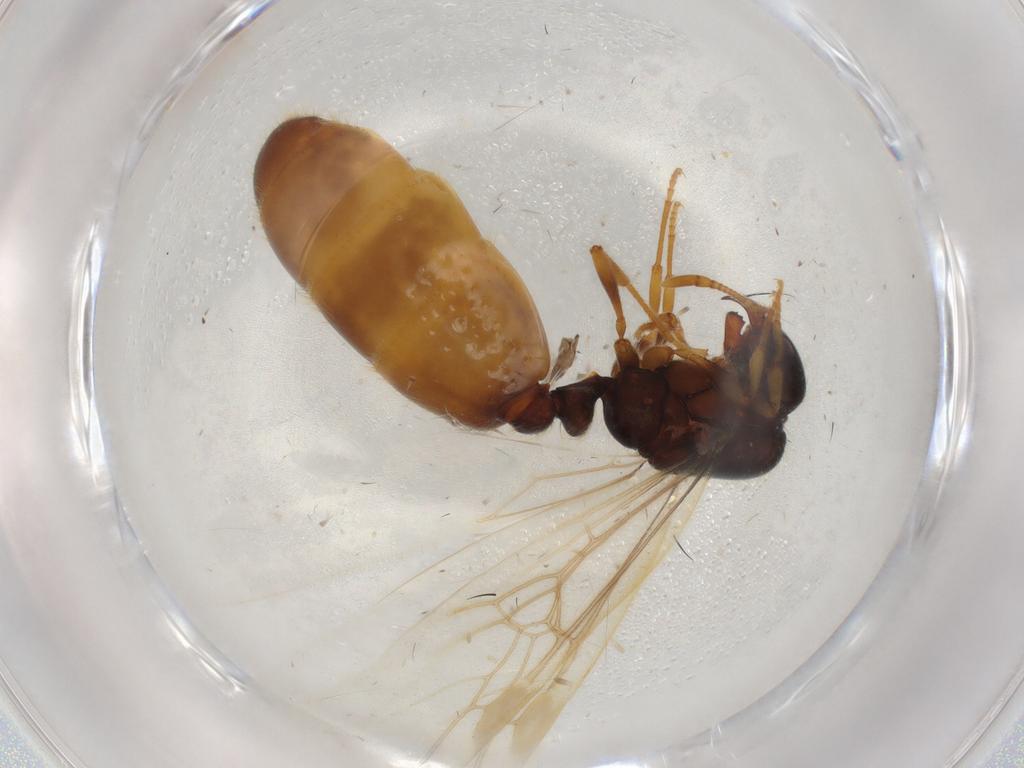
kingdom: Animalia
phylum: Arthropoda
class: Insecta
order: Hymenoptera
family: Formicidae
